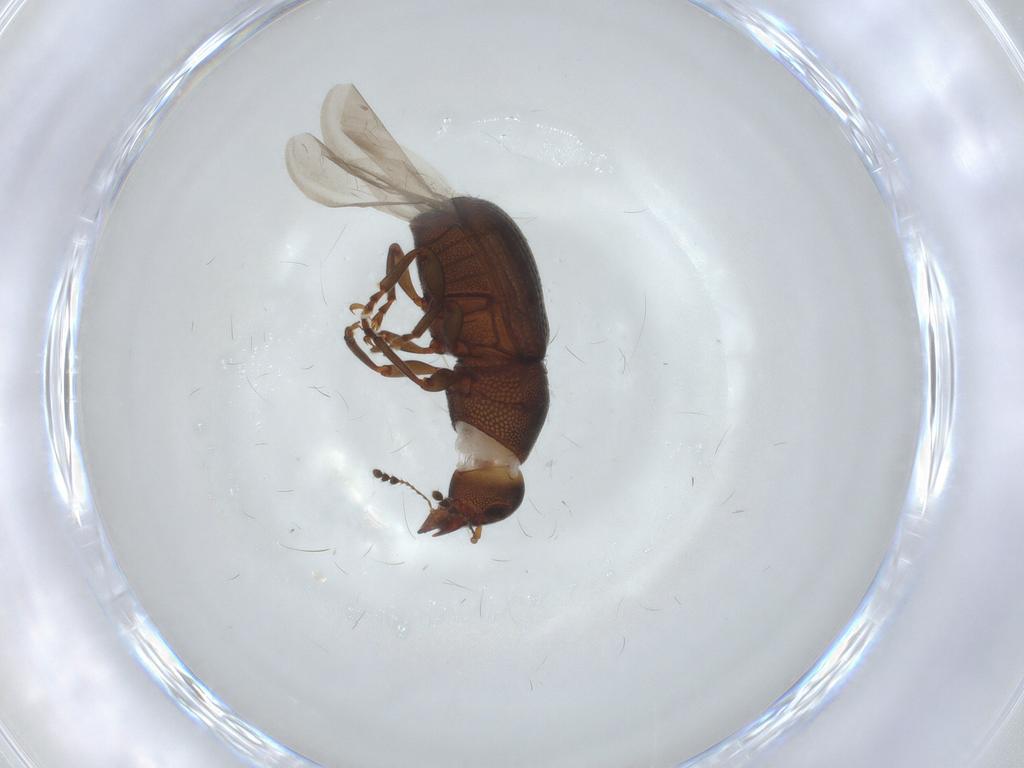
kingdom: Animalia
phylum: Arthropoda
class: Insecta
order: Coleoptera
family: Anthribidae
